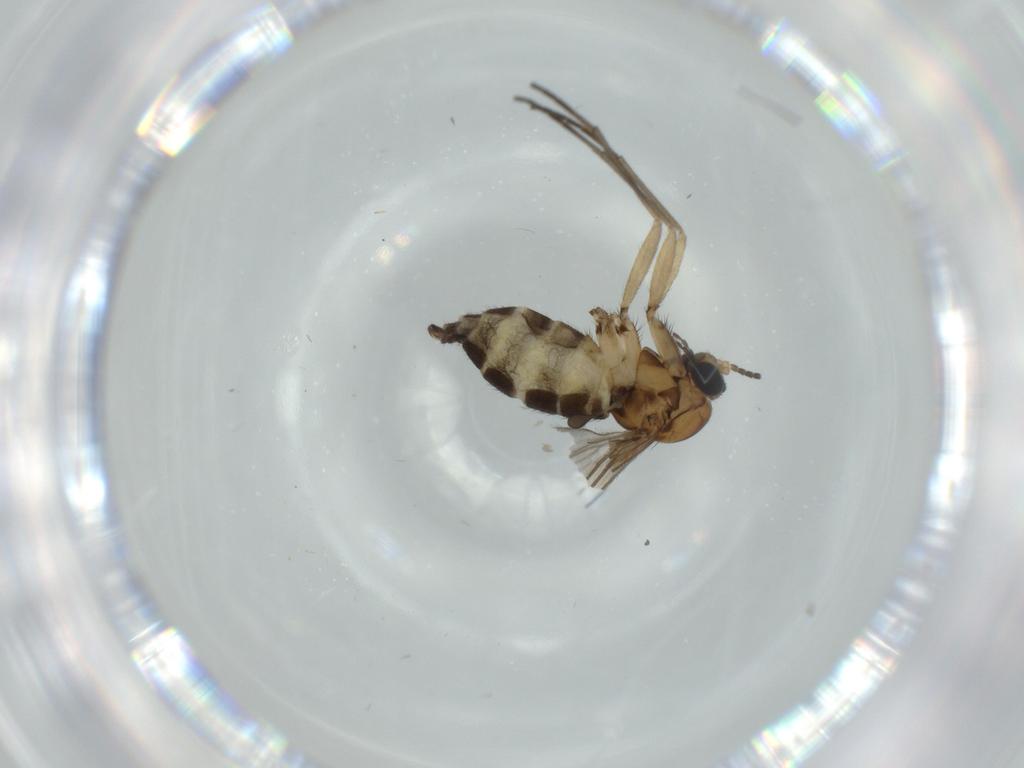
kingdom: Animalia
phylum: Arthropoda
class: Insecta
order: Diptera
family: Sciaridae
